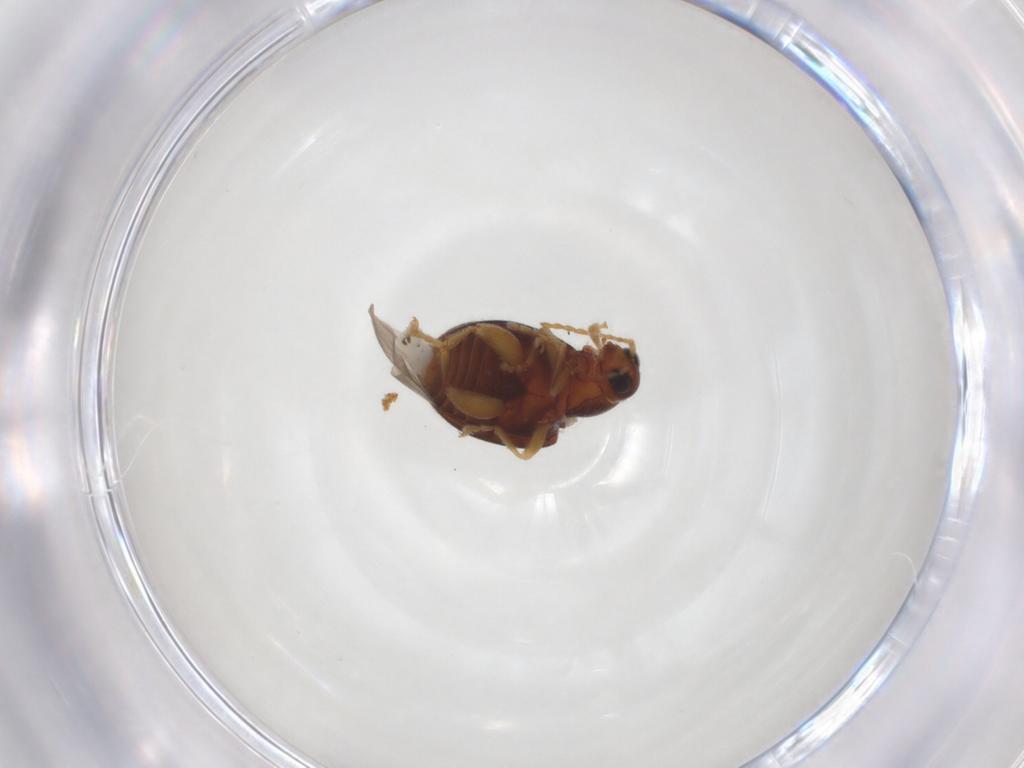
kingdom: Animalia
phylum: Arthropoda
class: Insecta
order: Coleoptera
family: Chrysomelidae
